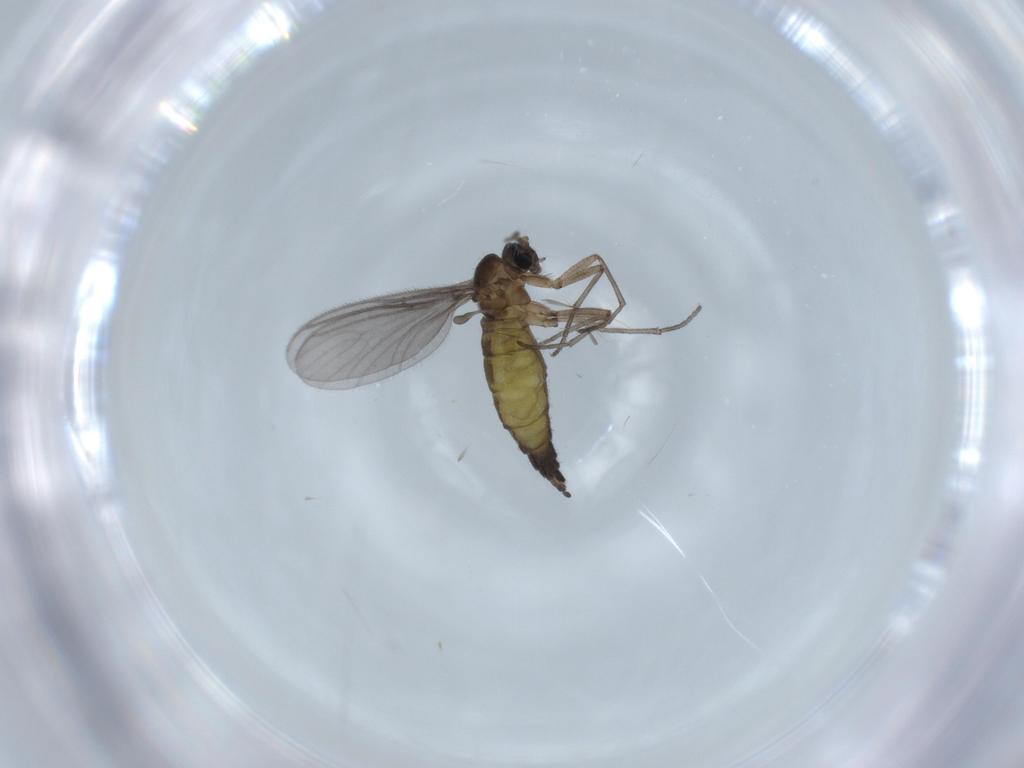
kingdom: Animalia
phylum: Arthropoda
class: Insecta
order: Diptera
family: Sciaridae
